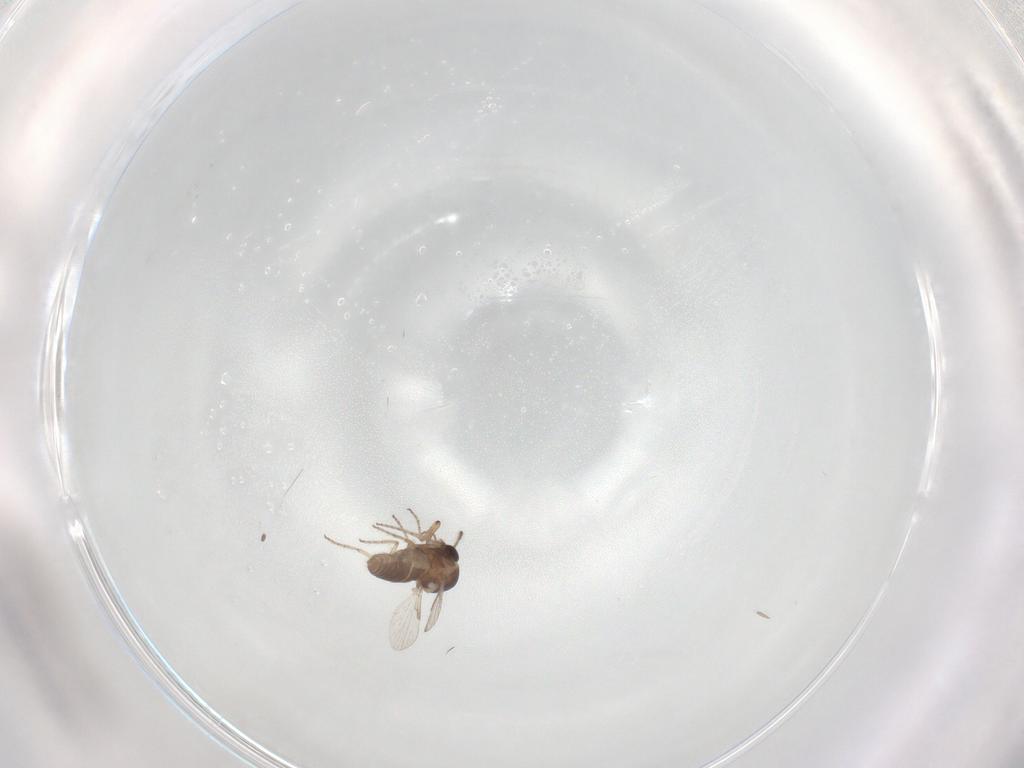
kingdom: Animalia
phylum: Arthropoda
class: Insecta
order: Diptera
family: Ceratopogonidae
